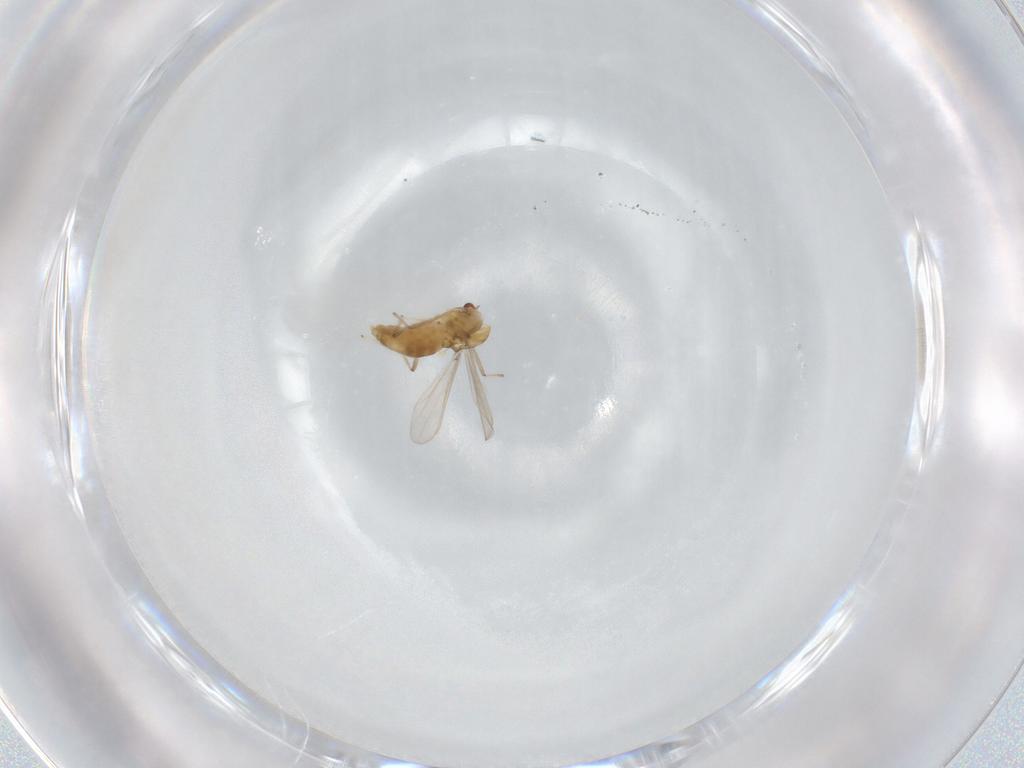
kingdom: Animalia
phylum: Arthropoda
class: Insecta
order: Diptera
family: Chironomidae
